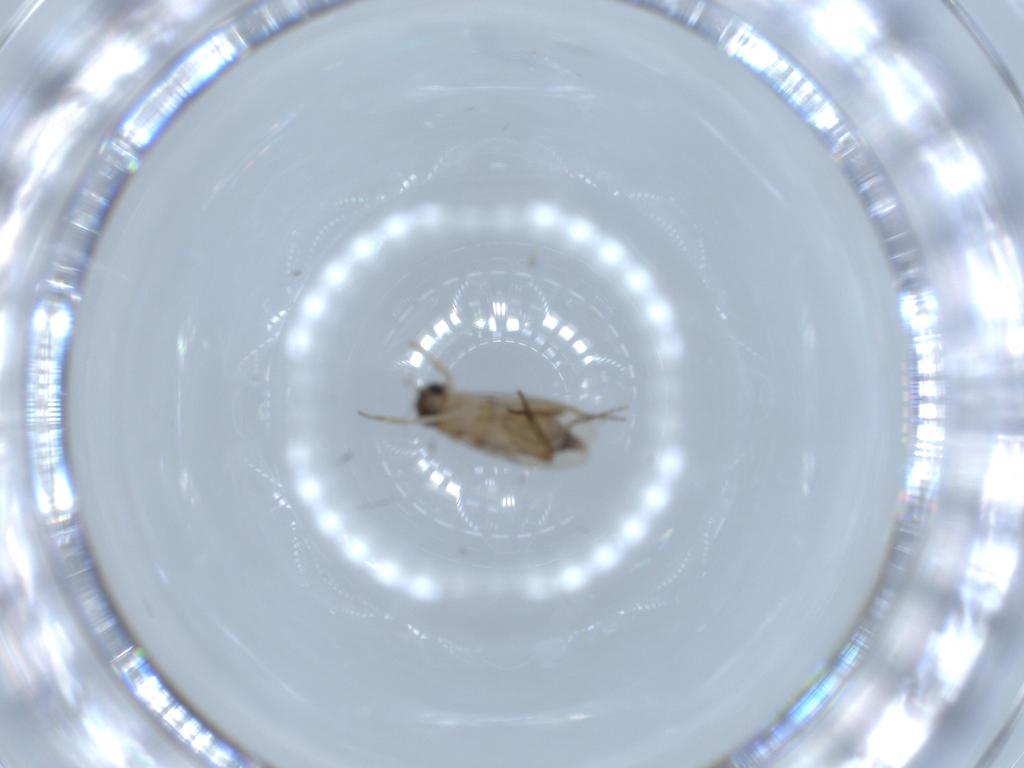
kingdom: Animalia
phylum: Arthropoda
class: Insecta
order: Diptera
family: Phoridae
